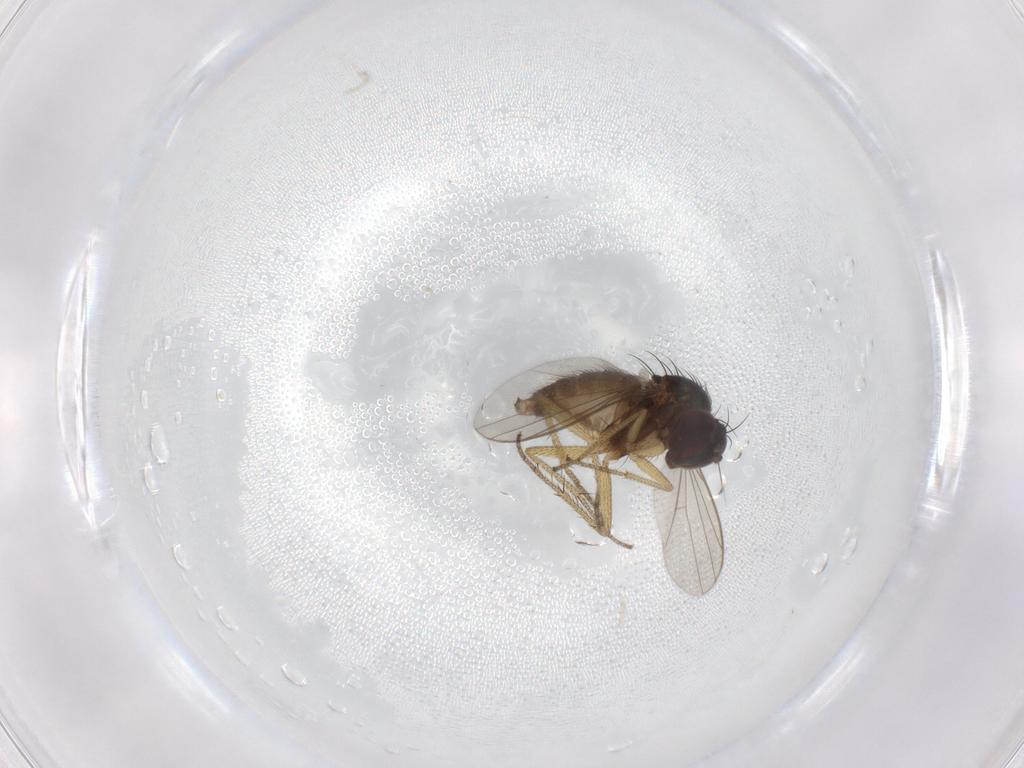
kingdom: Animalia
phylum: Arthropoda
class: Insecta
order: Diptera
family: Dolichopodidae
